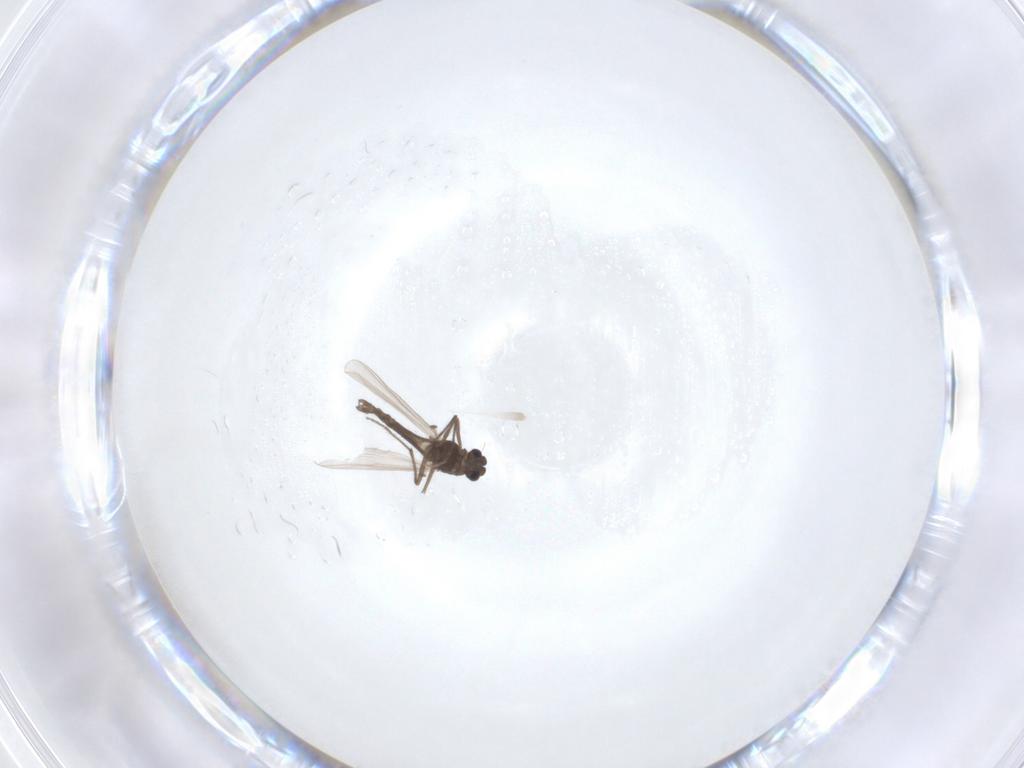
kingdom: Animalia
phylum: Arthropoda
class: Insecta
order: Diptera
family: Chironomidae
